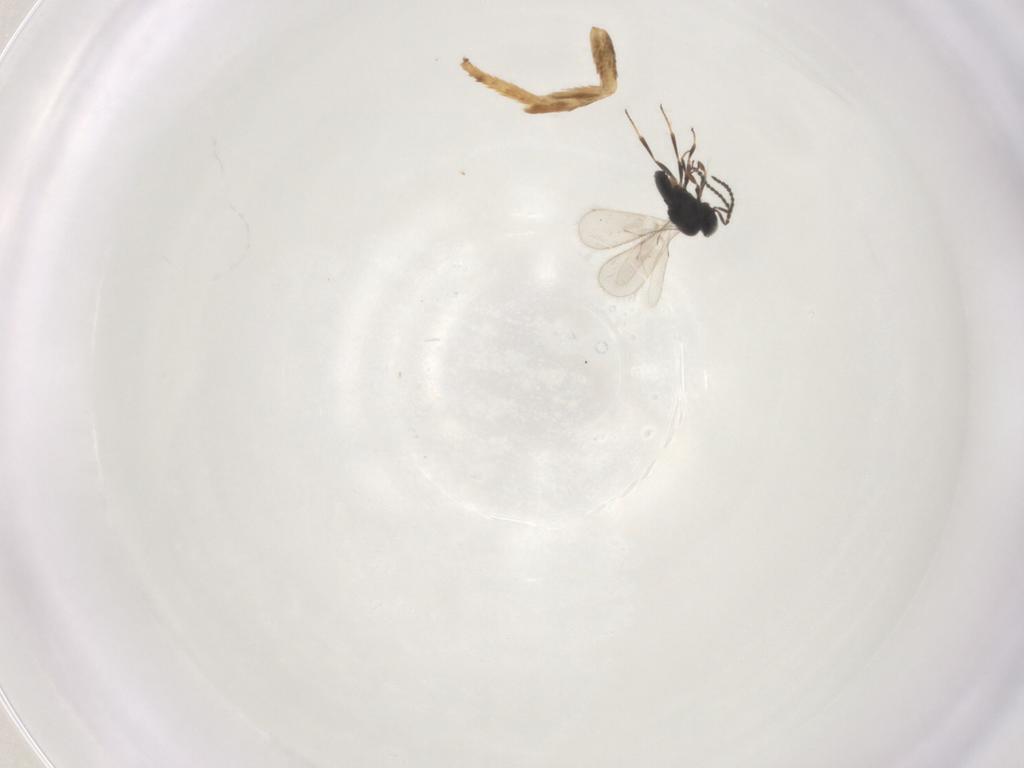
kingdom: Animalia
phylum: Arthropoda
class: Insecta
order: Hymenoptera
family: Scelionidae
